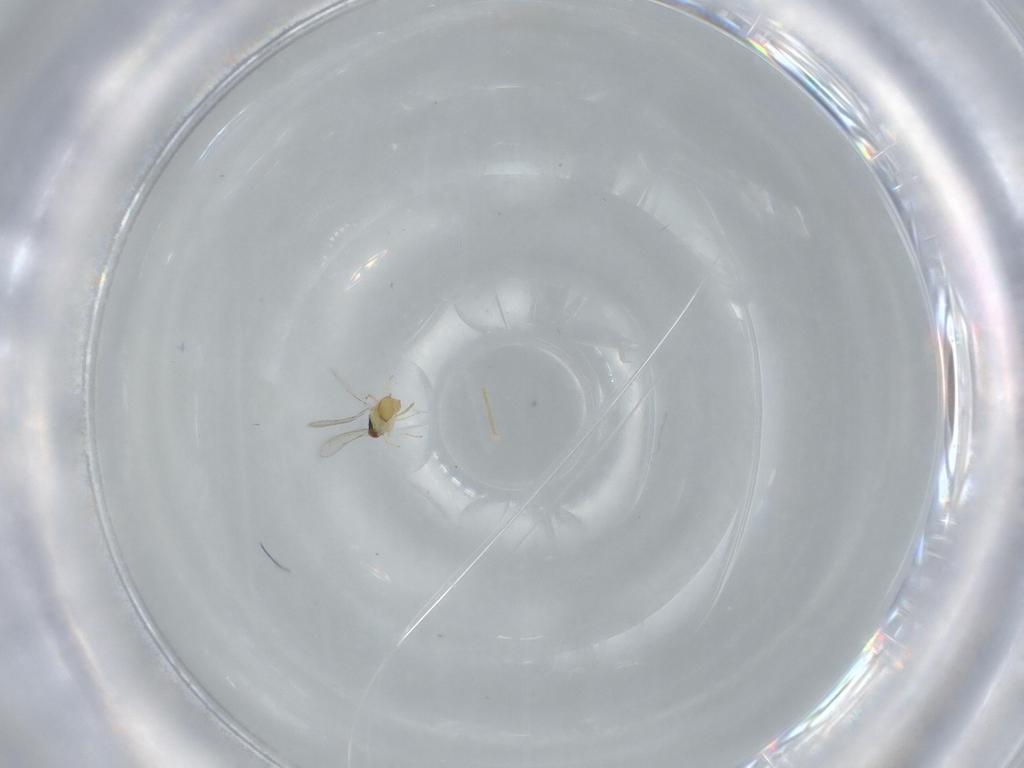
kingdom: Animalia
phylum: Arthropoda
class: Insecta
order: Hymenoptera
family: Aphelinidae
